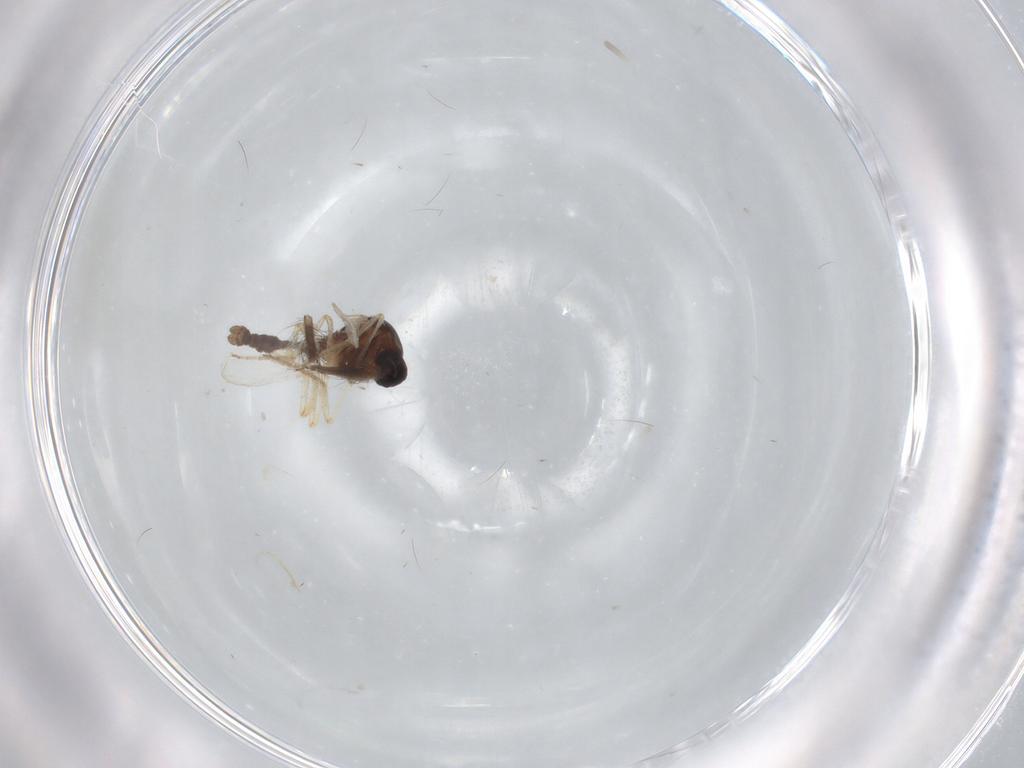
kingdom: Animalia
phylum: Arthropoda
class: Insecta
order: Diptera
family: Ceratopogonidae
